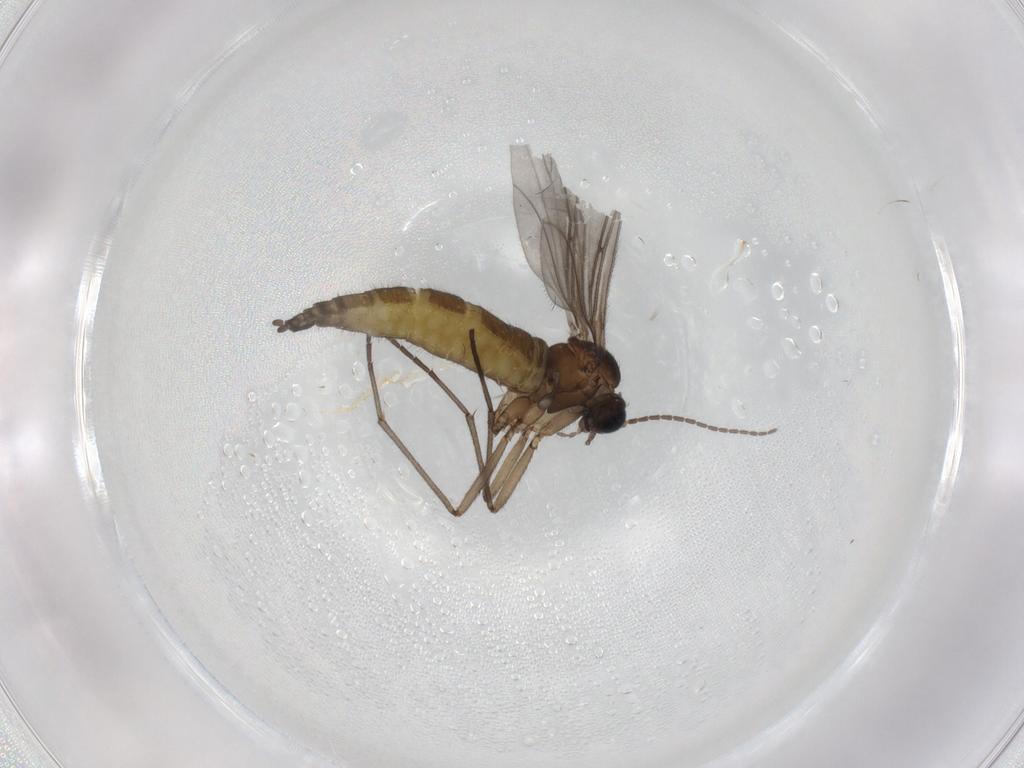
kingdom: Animalia
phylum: Arthropoda
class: Insecta
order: Diptera
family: Sciaridae
